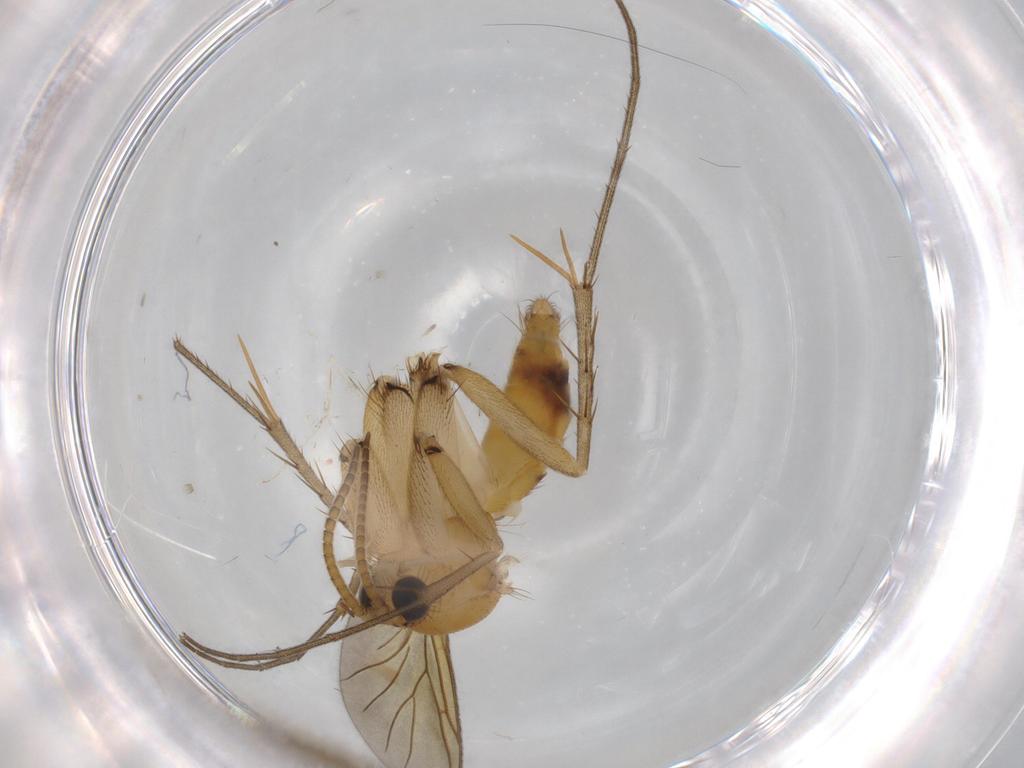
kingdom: Animalia
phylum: Arthropoda
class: Insecta
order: Diptera
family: Mycetophilidae
